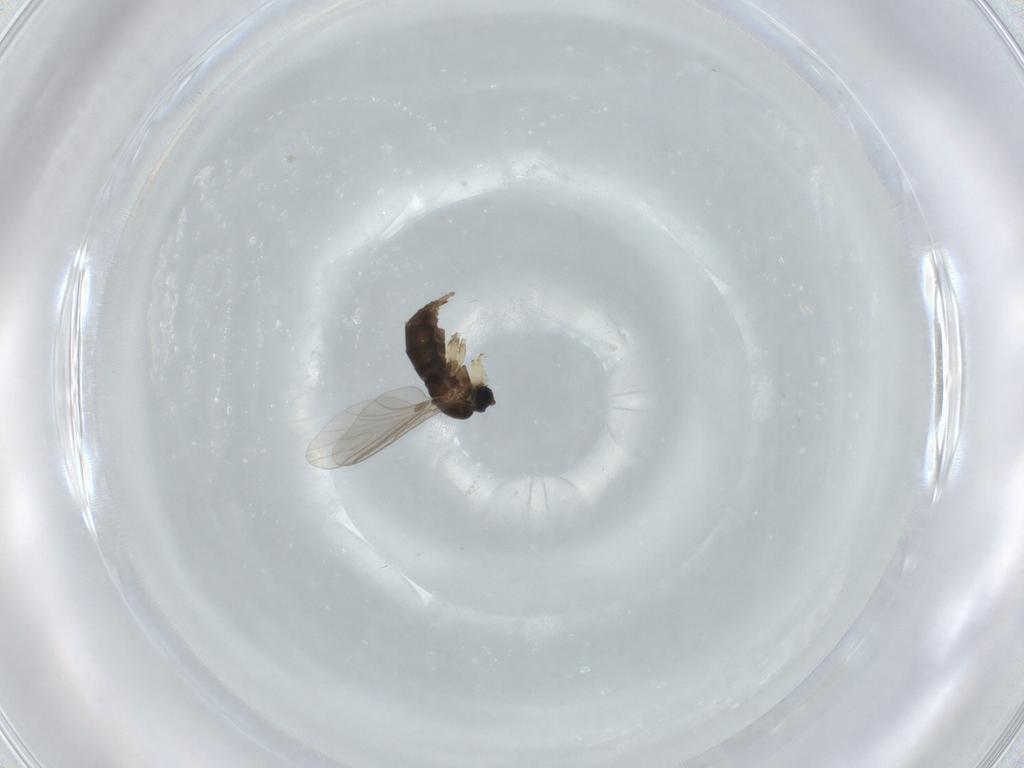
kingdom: Animalia
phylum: Arthropoda
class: Insecta
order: Diptera
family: Sciaridae
